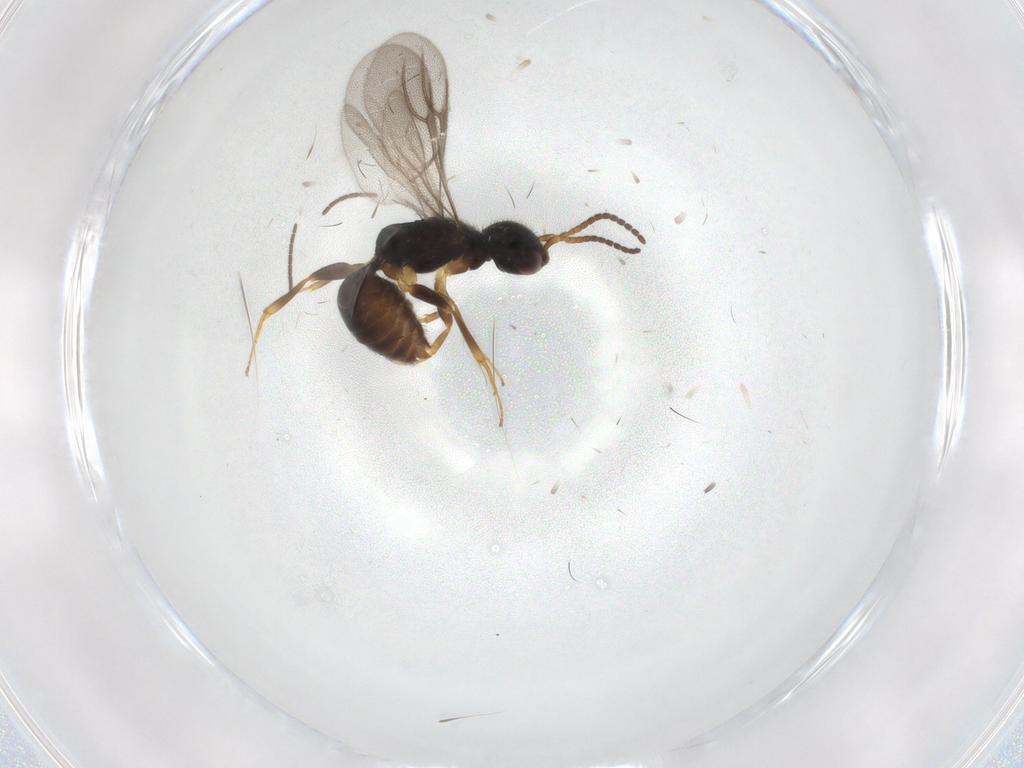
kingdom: Animalia
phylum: Arthropoda
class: Insecta
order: Hymenoptera
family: Bethylidae
